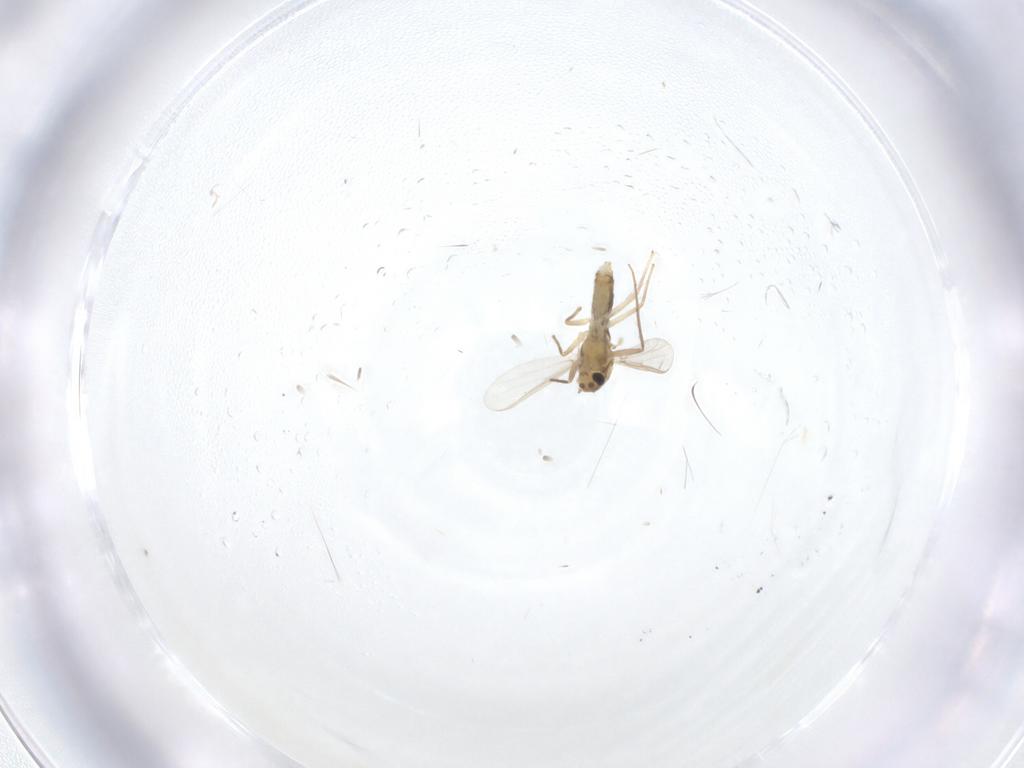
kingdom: Animalia
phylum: Arthropoda
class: Insecta
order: Diptera
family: Chironomidae
